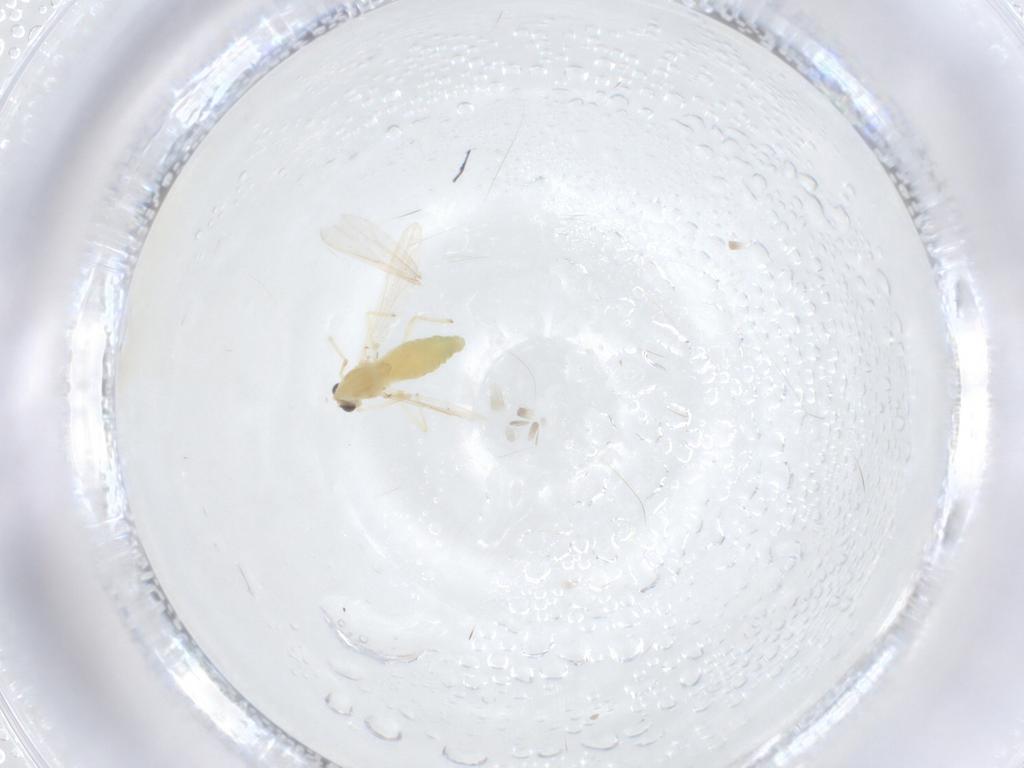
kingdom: Animalia
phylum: Arthropoda
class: Insecta
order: Diptera
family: Chironomidae
